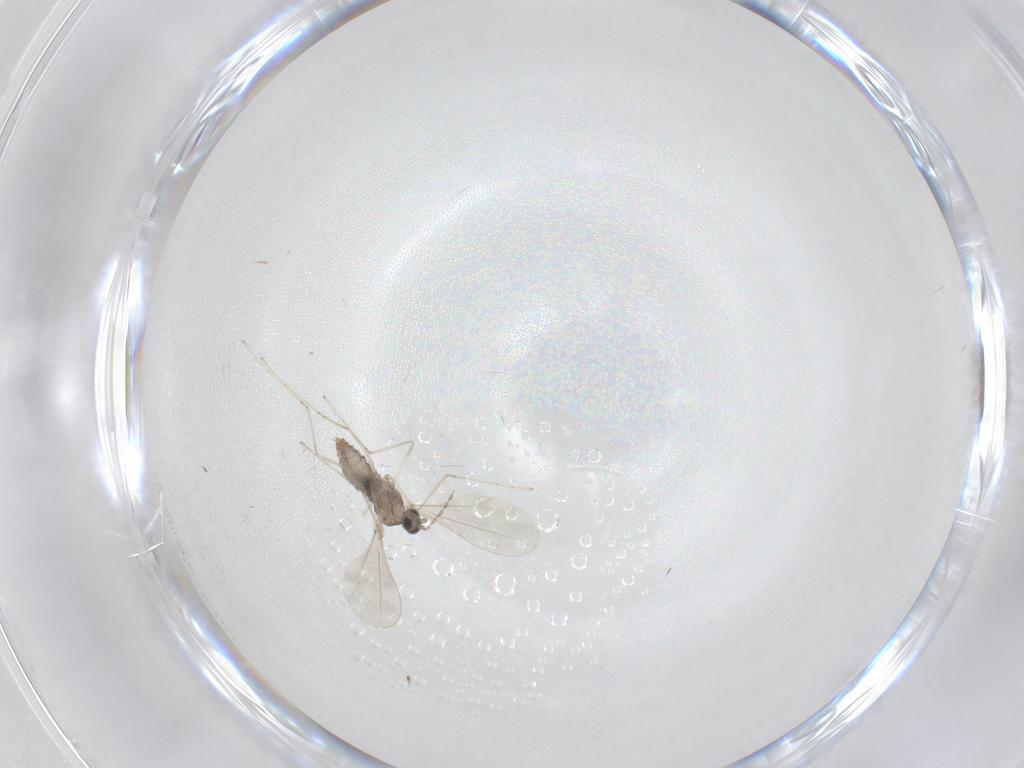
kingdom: Animalia
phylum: Arthropoda
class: Insecta
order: Diptera
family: Cecidomyiidae
